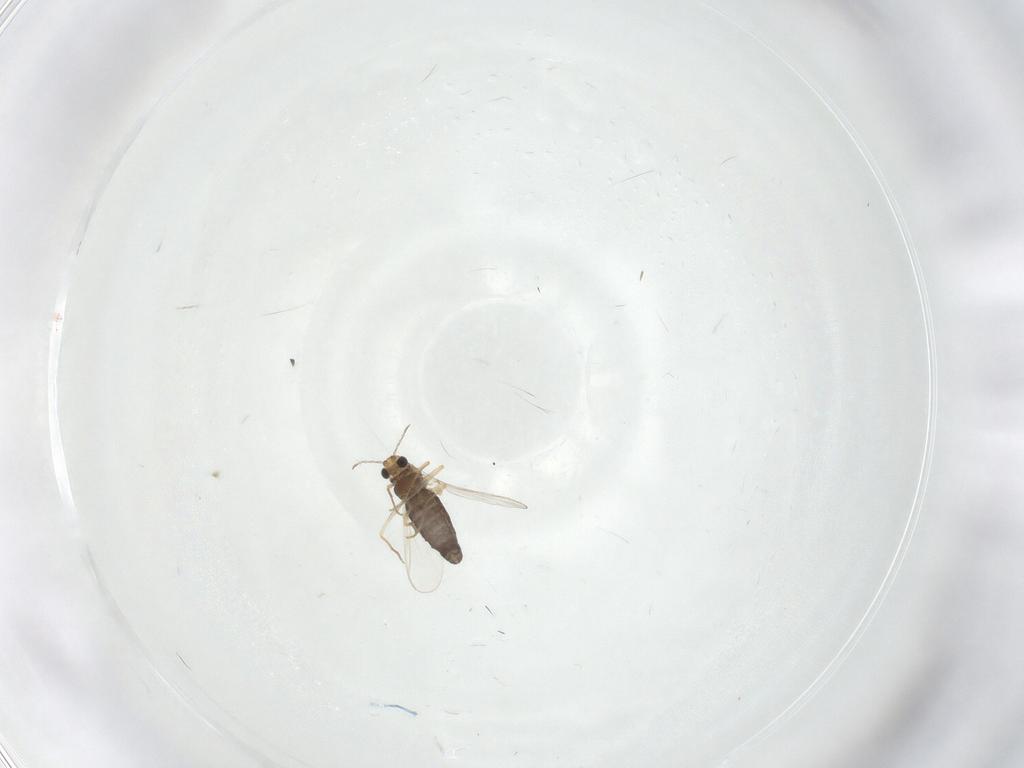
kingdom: Animalia
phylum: Arthropoda
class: Insecta
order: Diptera
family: Chironomidae
